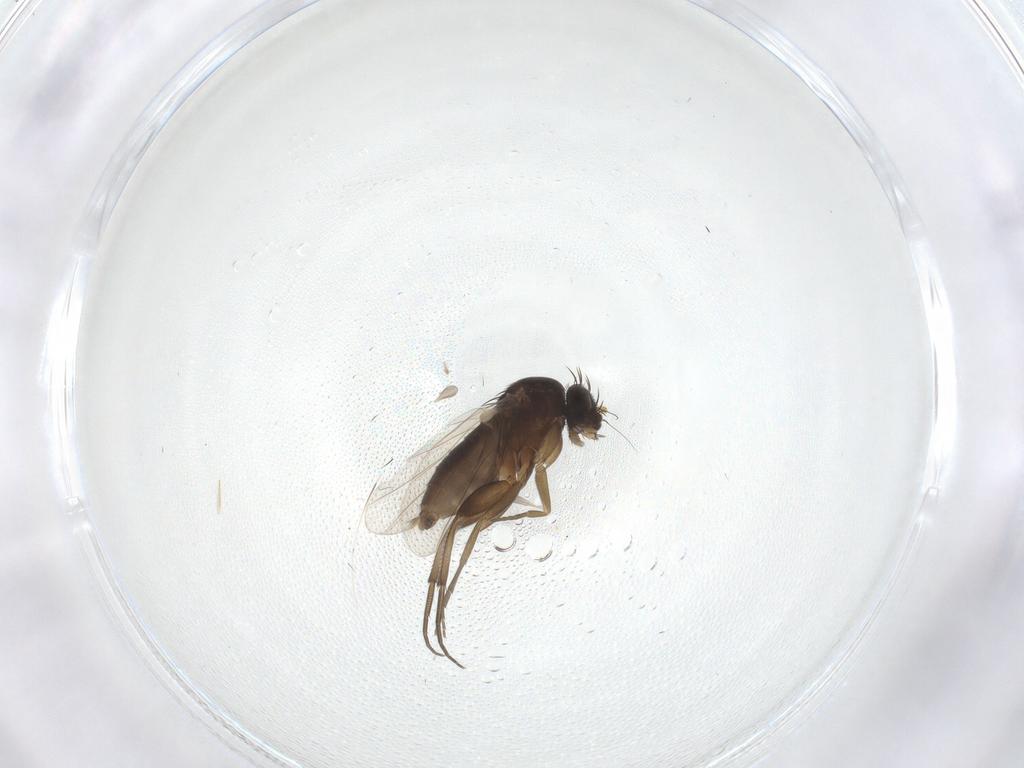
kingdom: Animalia
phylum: Arthropoda
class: Insecta
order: Diptera
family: Phoridae
